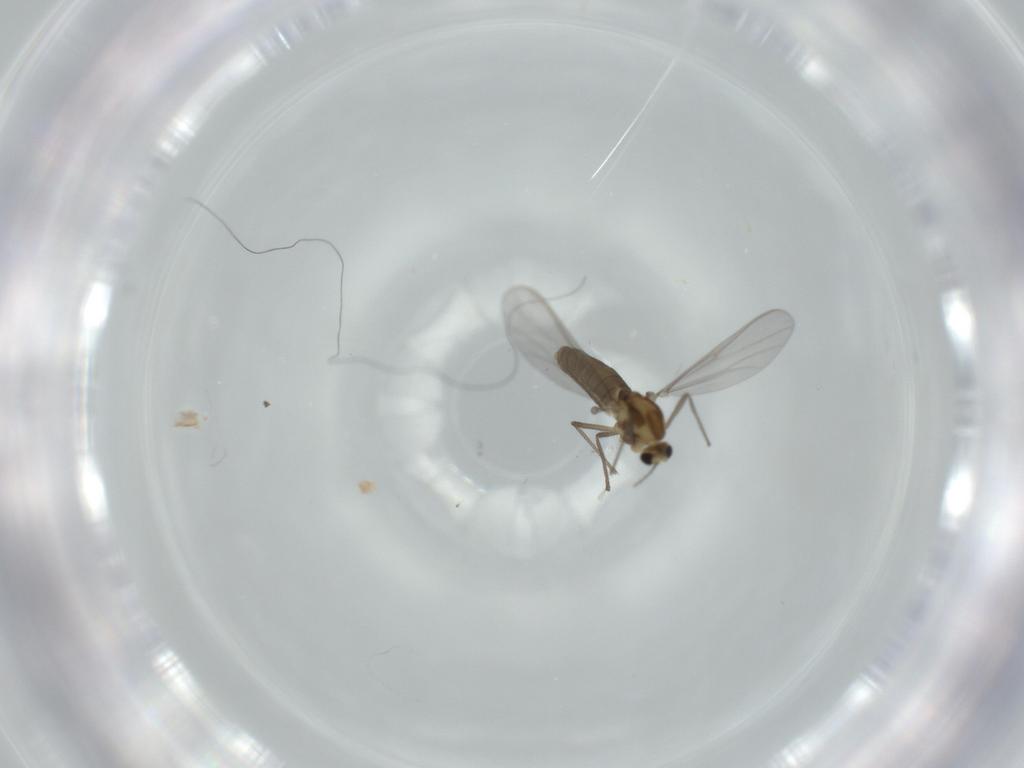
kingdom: Animalia
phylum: Arthropoda
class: Insecta
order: Diptera
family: Chironomidae
